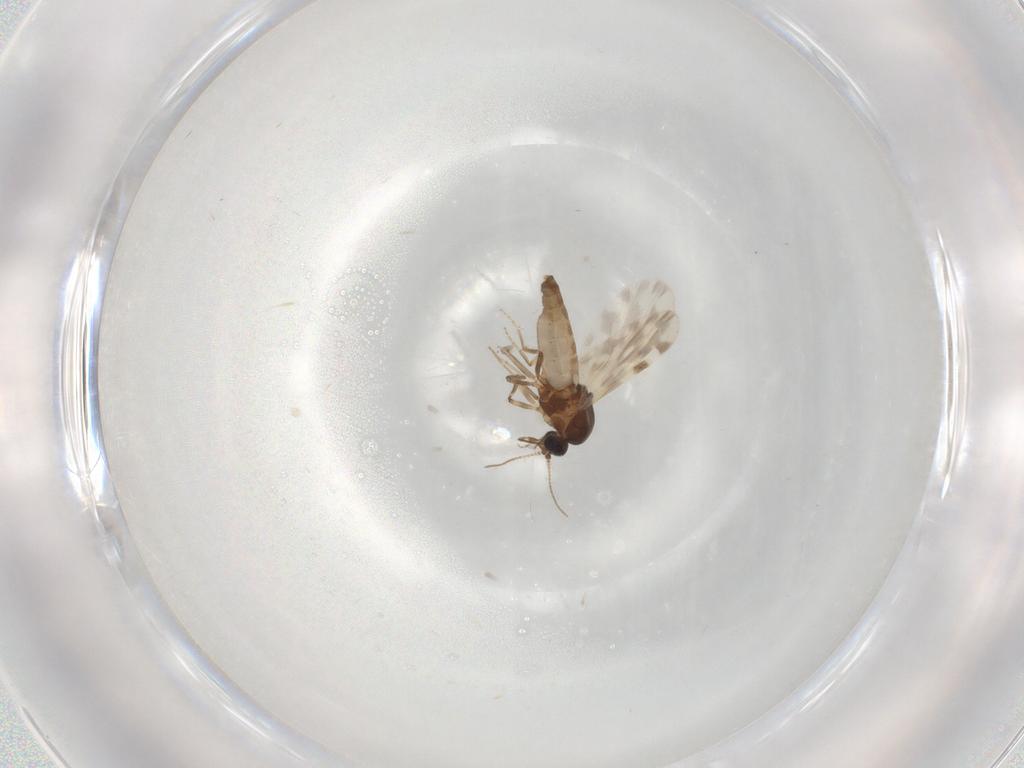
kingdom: Animalia
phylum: Arthropoda
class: Insecta
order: Diptera
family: Ceratopogonidae
